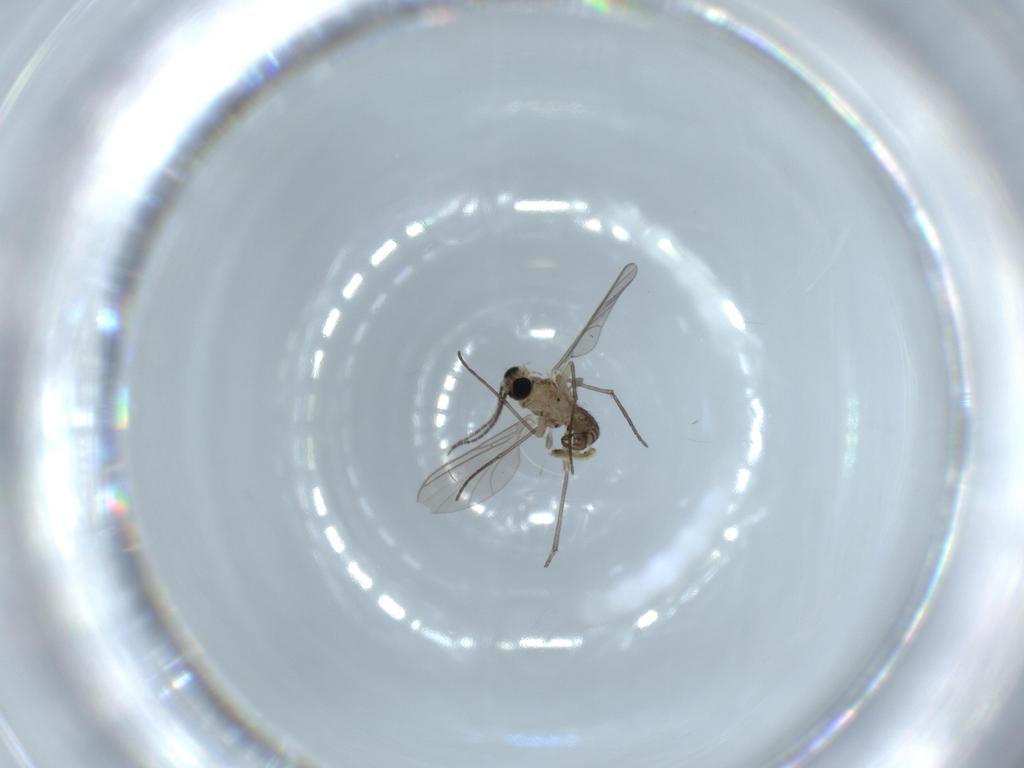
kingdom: Animalia
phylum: Arthropoda
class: Insecta
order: Diptera
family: Sciaridae
